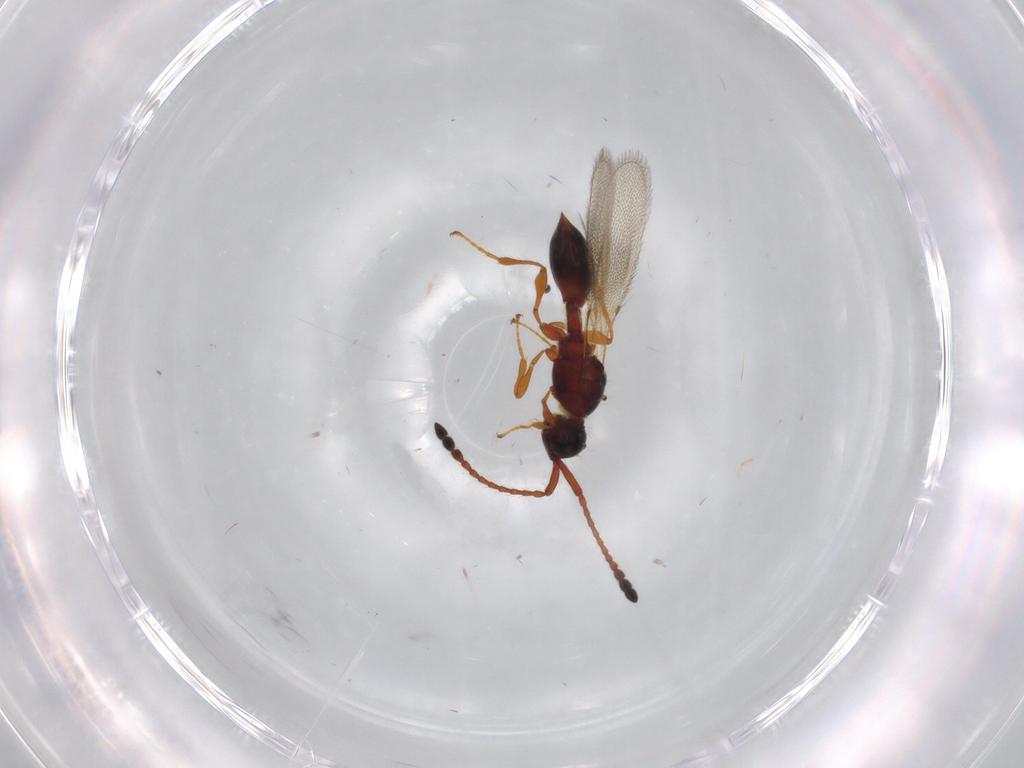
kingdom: Animalia
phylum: Arthropoda
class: Insecta
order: Hymenoptera
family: Diapriidae
